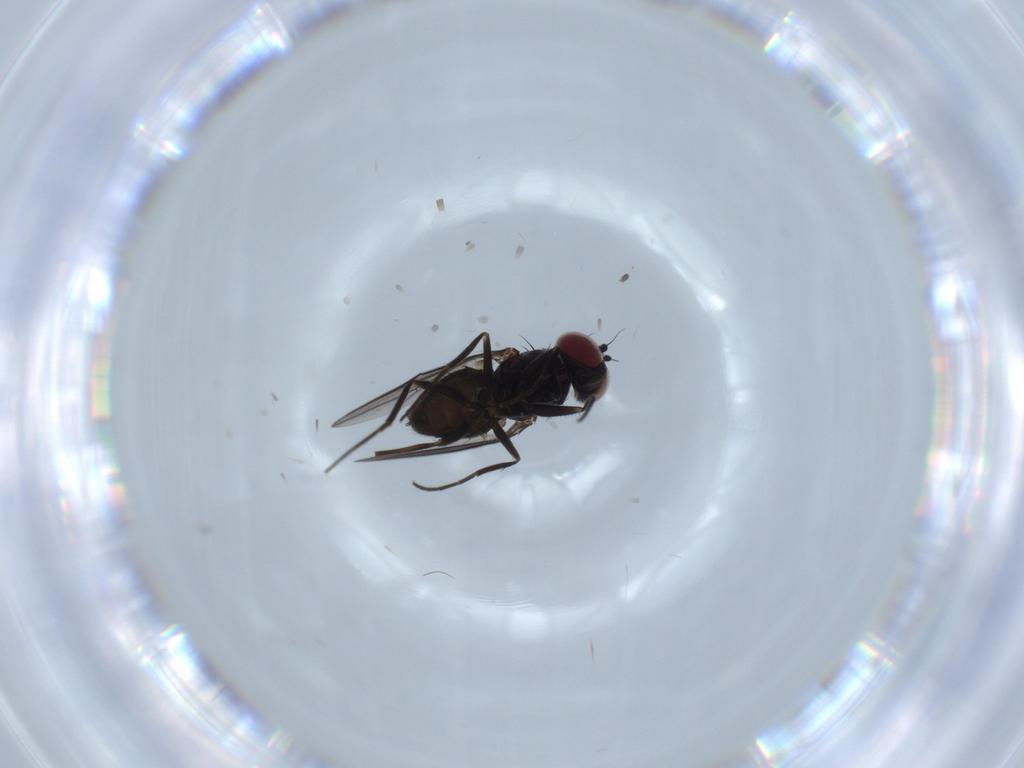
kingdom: Animalia
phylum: Arthropoda
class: Insecta
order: Diptera
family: Dolichopodidae
